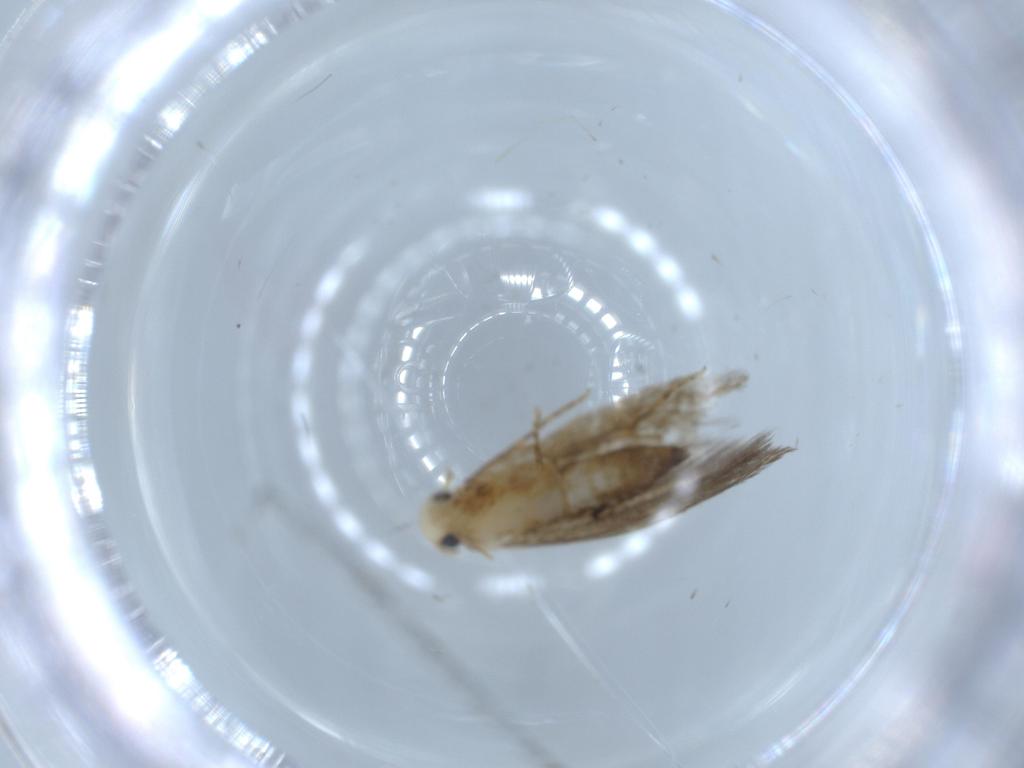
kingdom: Animalia
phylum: Arthropoda
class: Insecta
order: Lepidoptera
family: Tineidae
